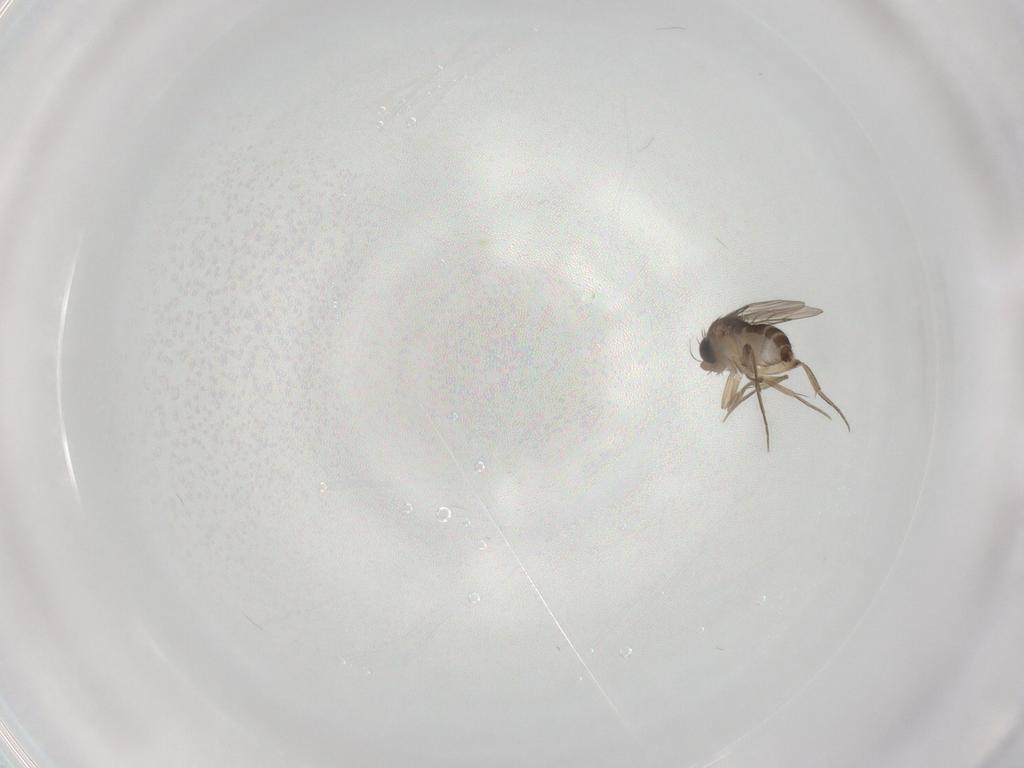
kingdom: Animalia
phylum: Arthropoda
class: Insecta
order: Diptera
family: Phoridae
